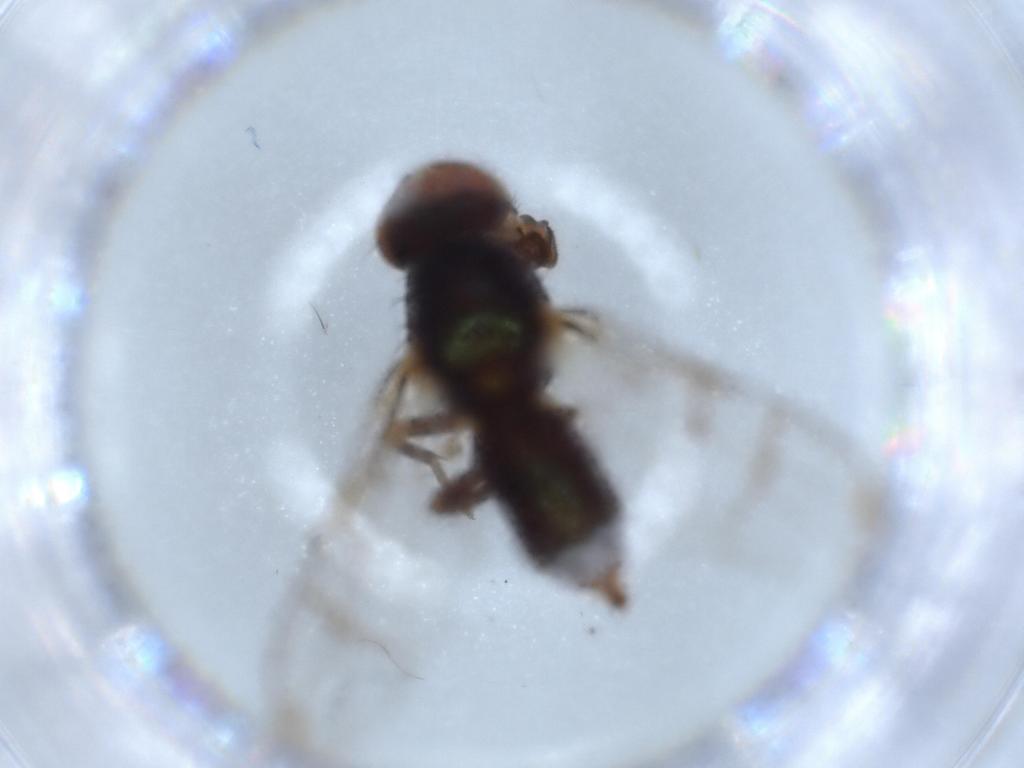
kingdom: Animalia
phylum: Arthropoda
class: Insecta
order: Diptera
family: Platystomatidae
